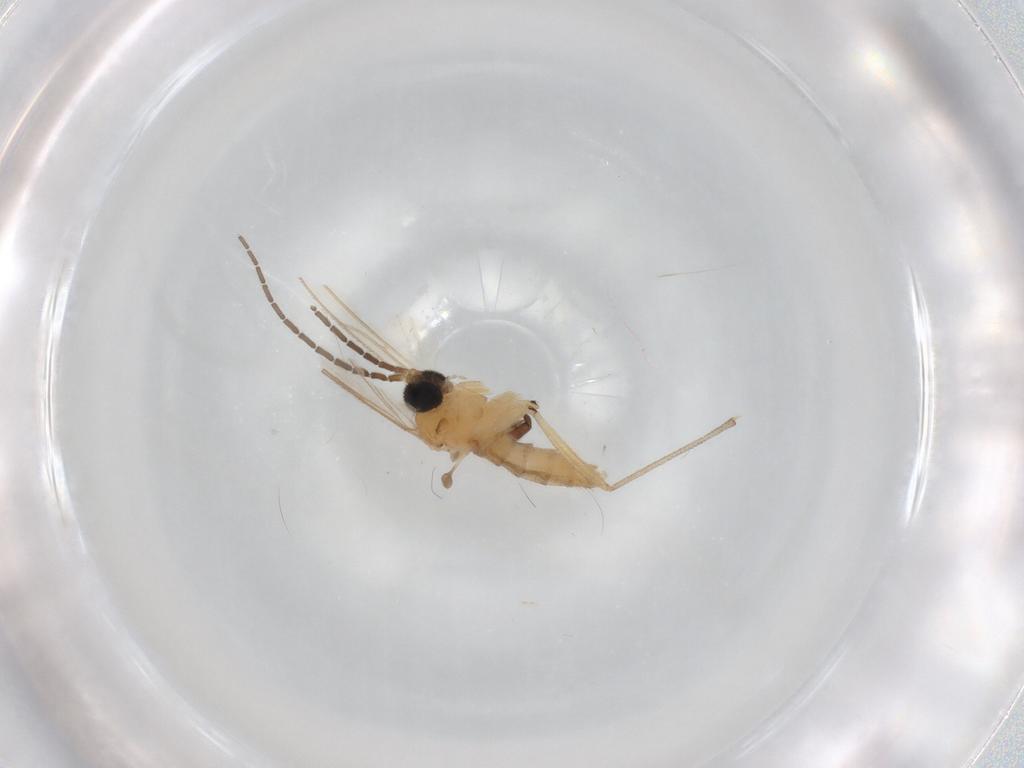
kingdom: Animalia
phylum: Arthropoda
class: Insecta
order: Diptera
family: Sciaridae
